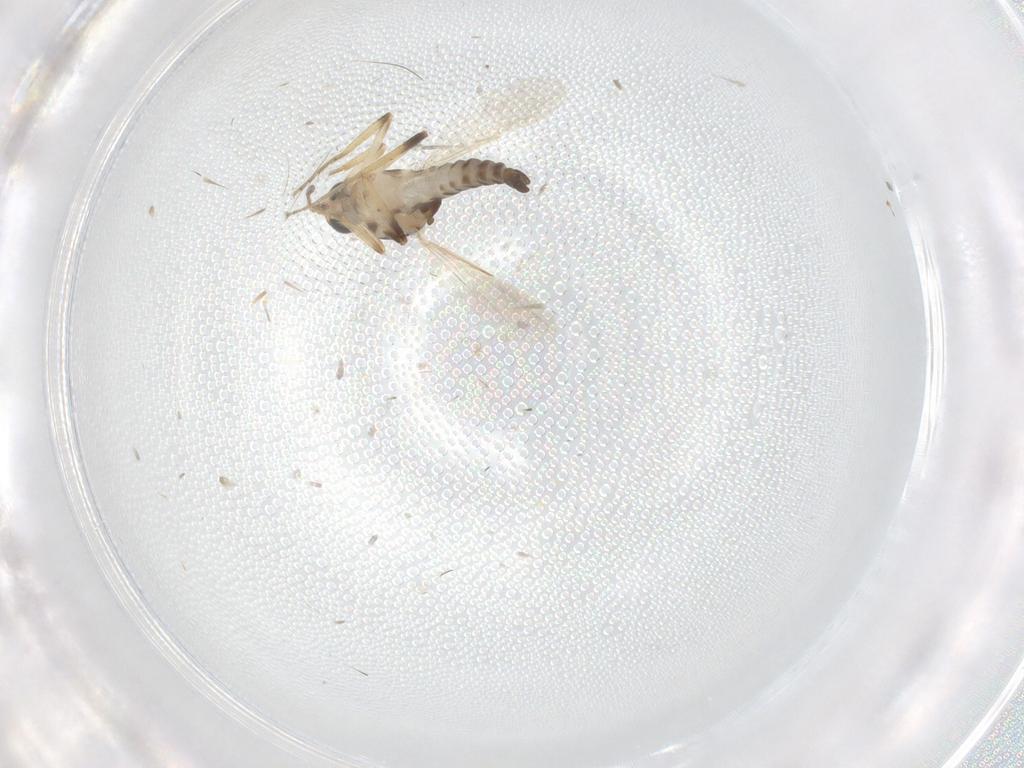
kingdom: Animalia
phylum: Arthropoda
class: Insecta
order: Diptera
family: Ceratopogonidae
